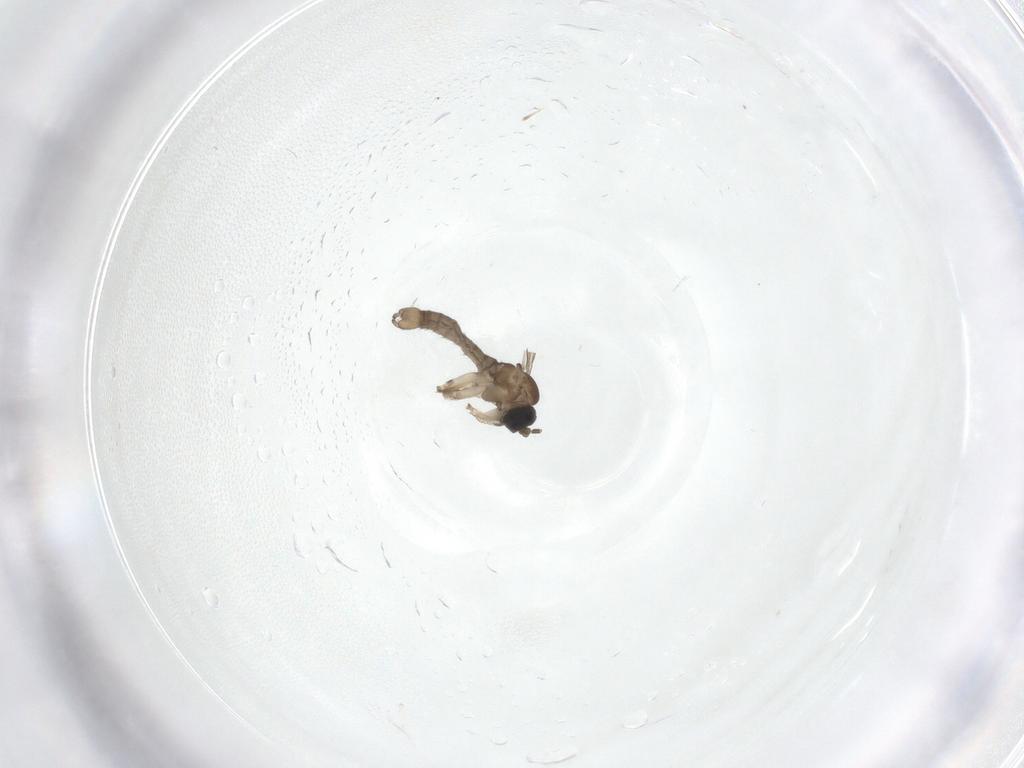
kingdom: Animalia
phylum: Arthropoda
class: Insecta
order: Diptera
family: Sciaridae
